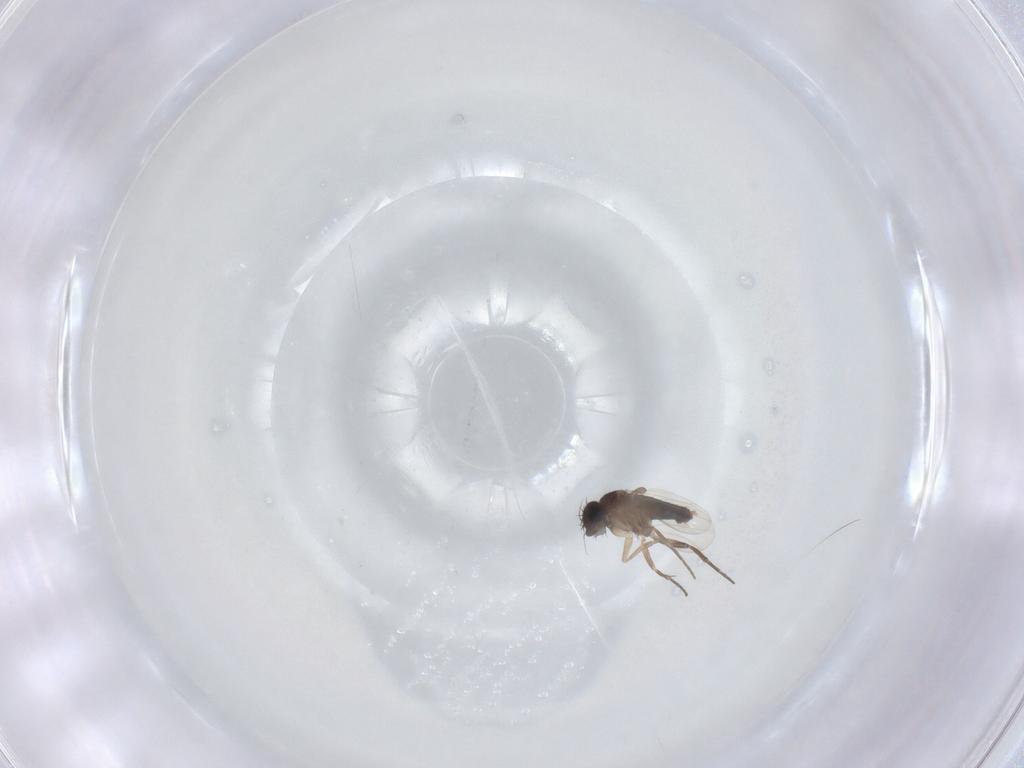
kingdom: Animalia
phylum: Arthropoda
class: Insecta
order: Diptera
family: Phoridae
